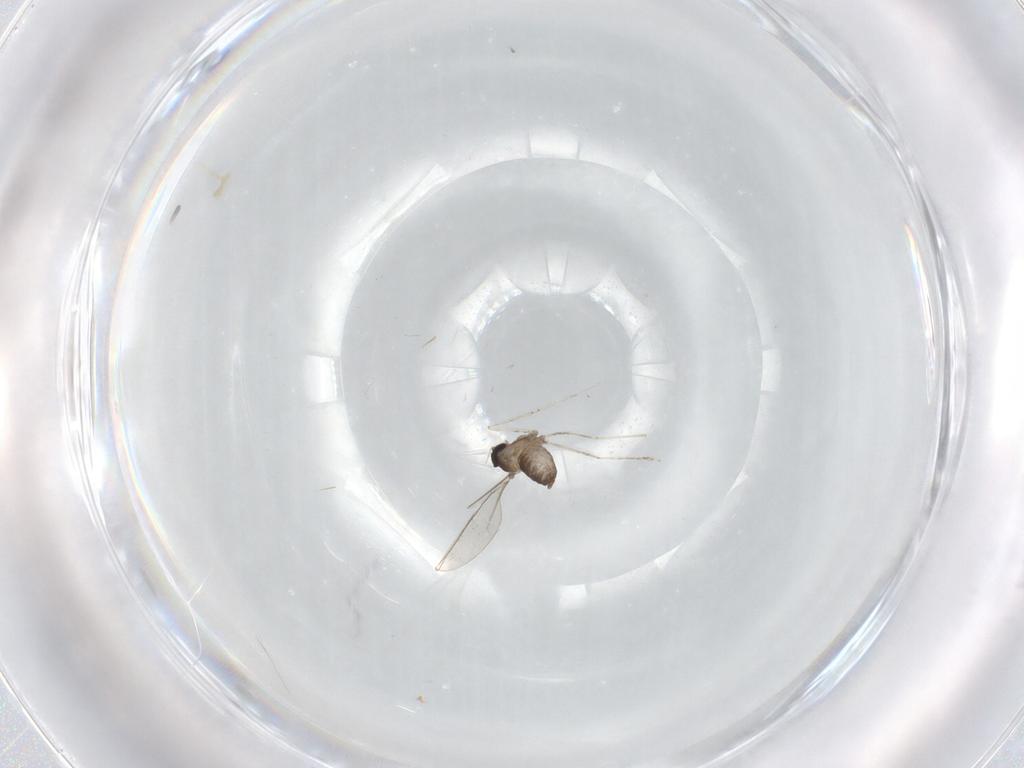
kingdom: Animalia
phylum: Arthropoda
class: Insecta
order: Diptera
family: Cecidomyiidae
